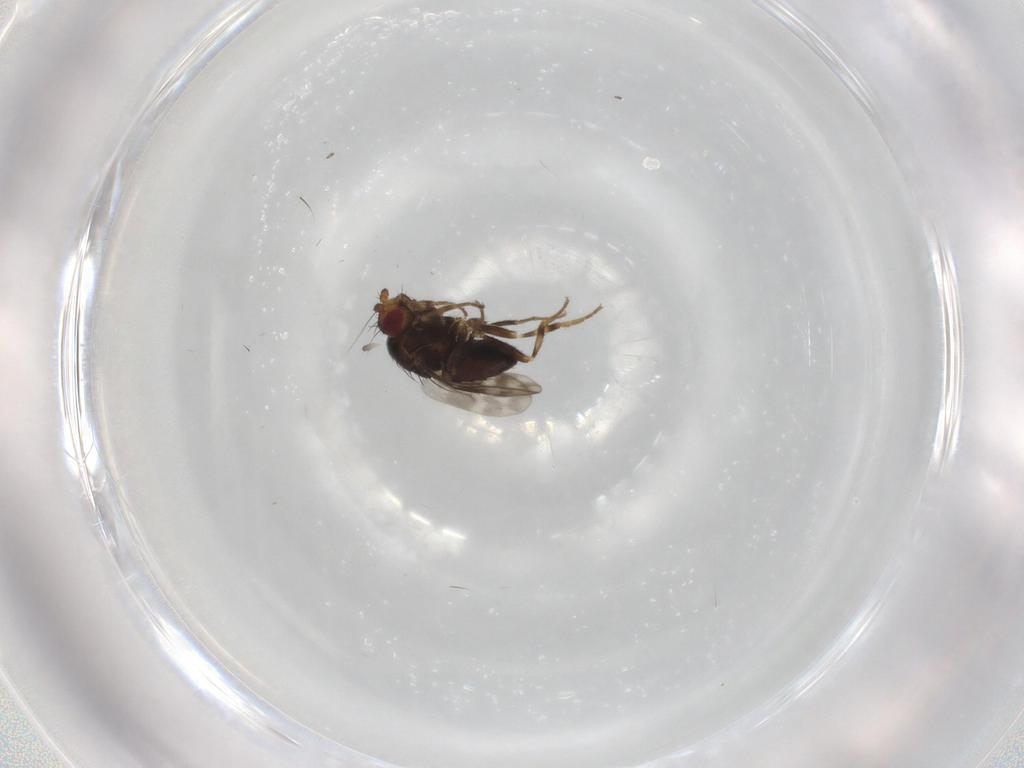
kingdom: Animalia
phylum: Arthropoda
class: Insecta
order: Diptera
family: Sphaeroceridae
